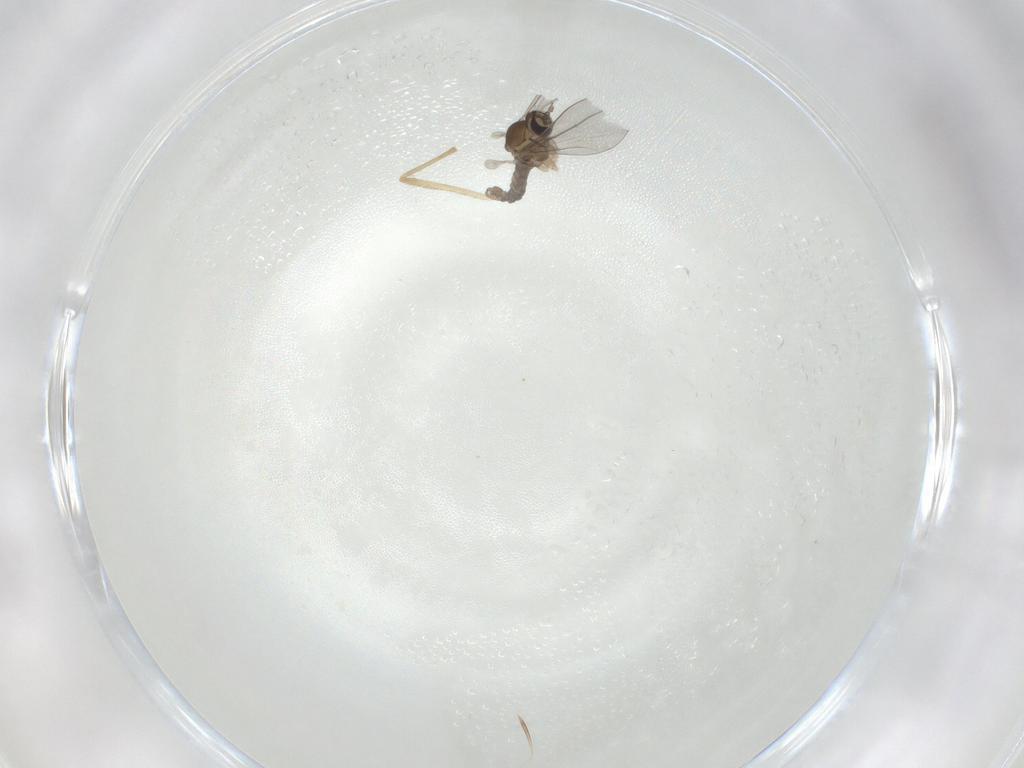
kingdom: Animalia
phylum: Arthropoda
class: Insecta
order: Diptera
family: Cecidomyiidae
